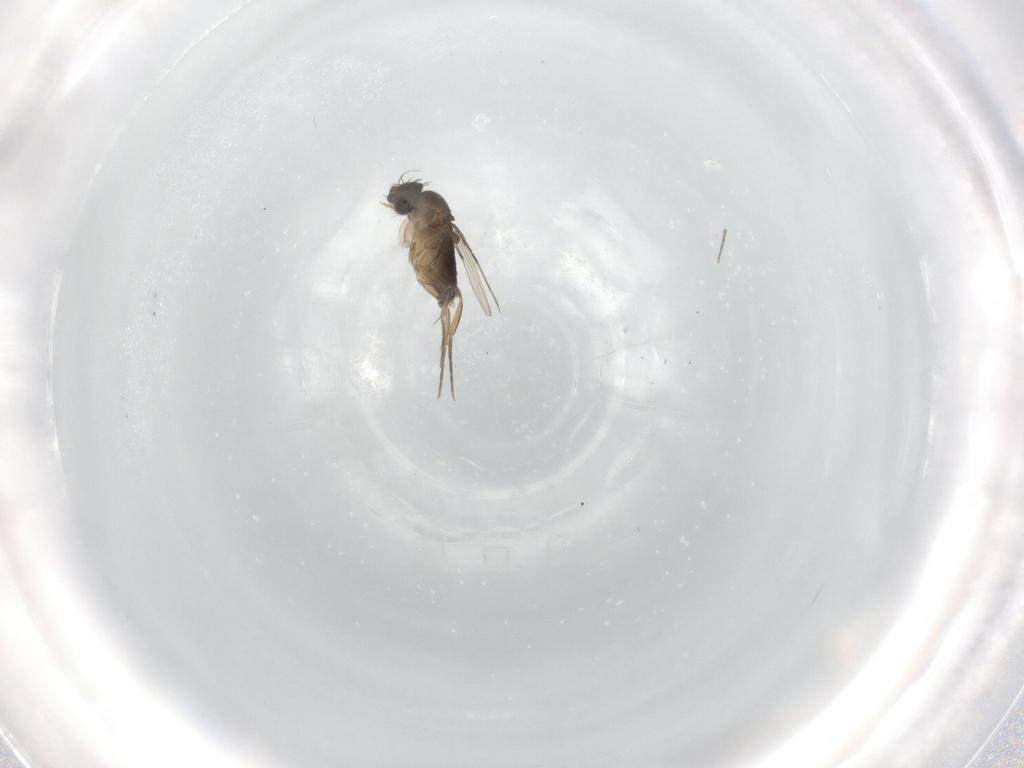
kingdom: Animalia
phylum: Arthropoda
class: Insecta
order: Diptera
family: Phoridae
